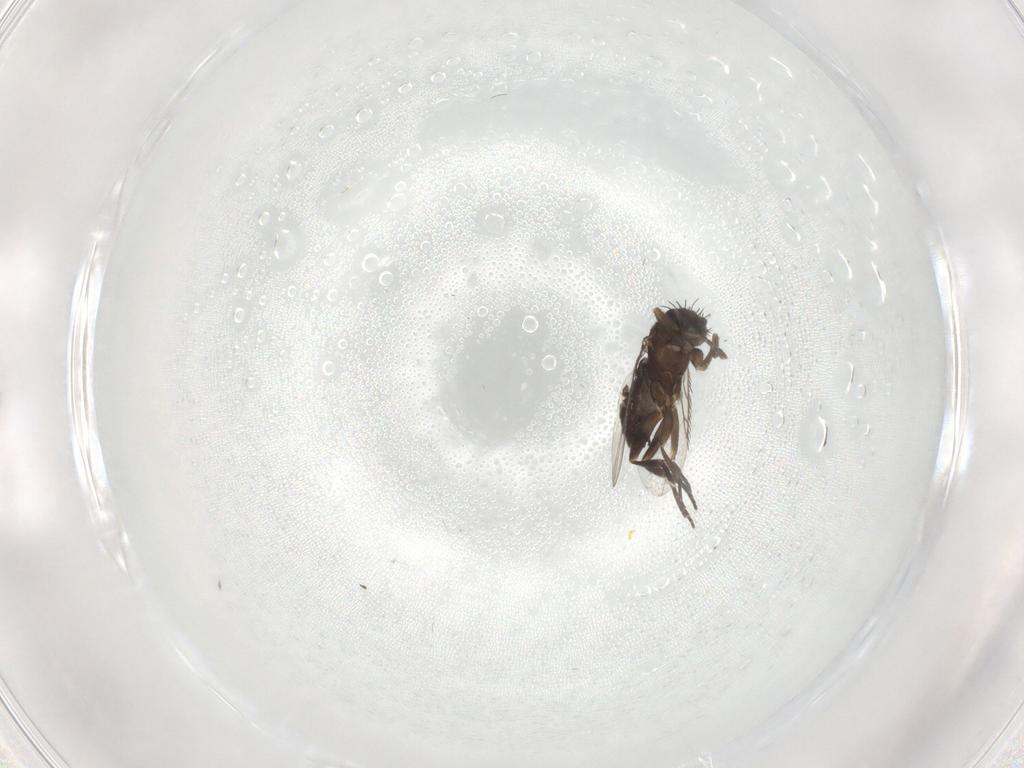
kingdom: Animalia
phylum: Arthropoda
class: Insecta
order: Diptera
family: Phoridae
